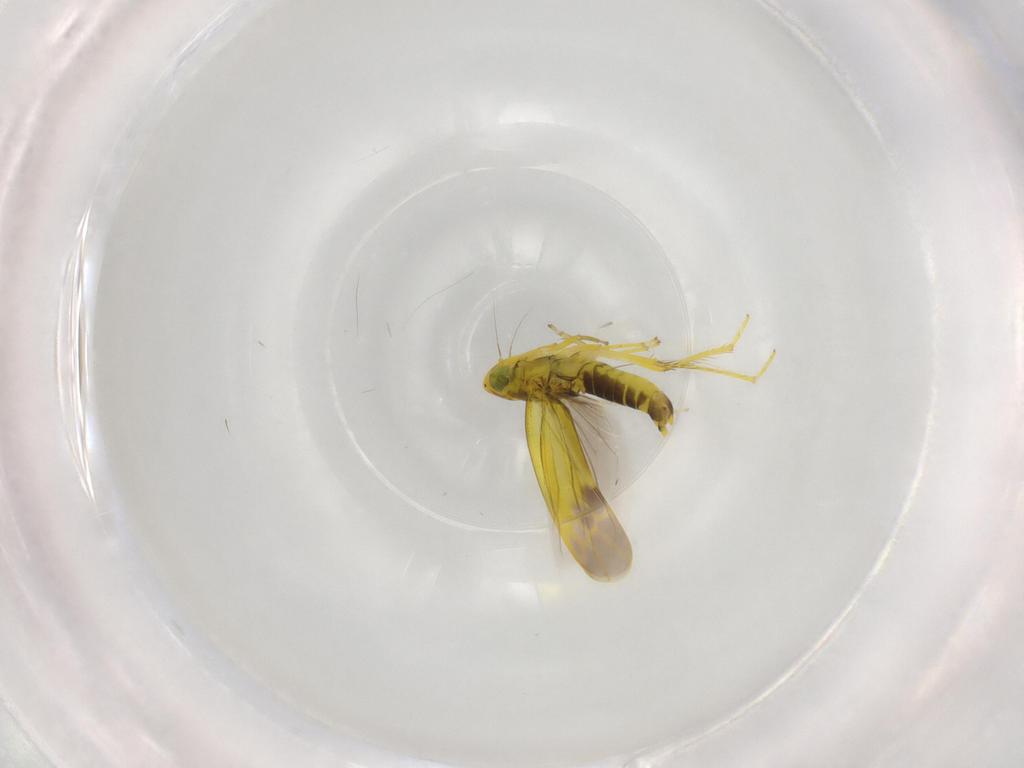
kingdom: Animalia
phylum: Arthropoda
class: Insecta
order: Hemiptera
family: Cicadellidae
